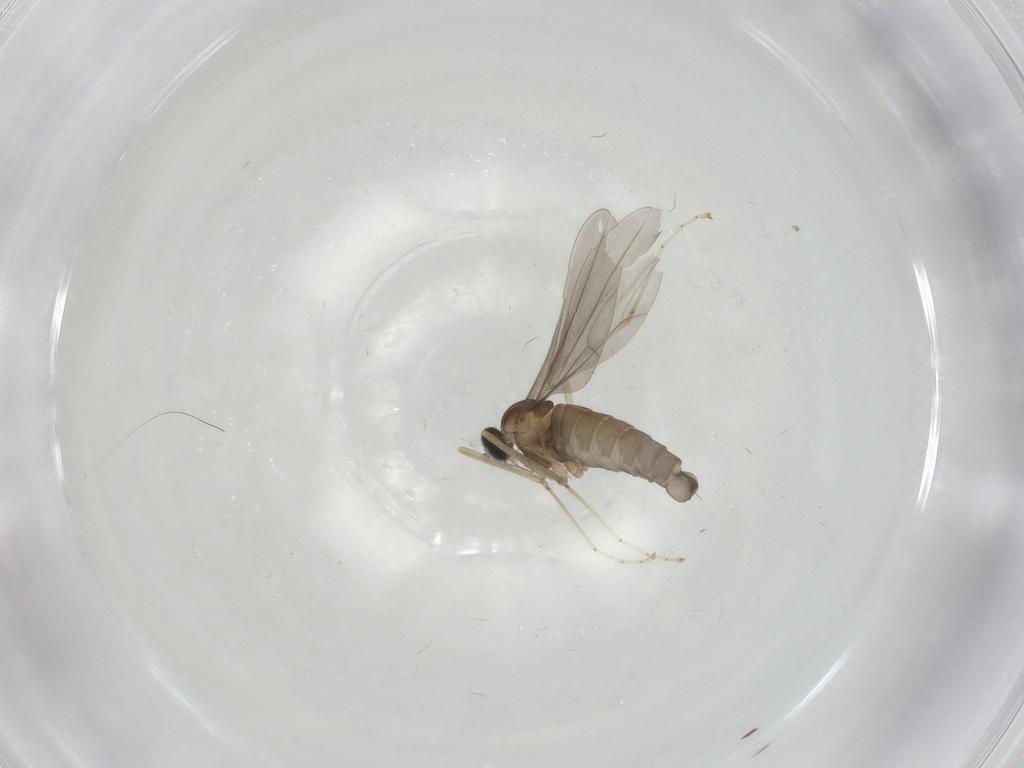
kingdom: Animalia
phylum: Arthropoda
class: Insecta
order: Diptera
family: Cecidomyiidae
